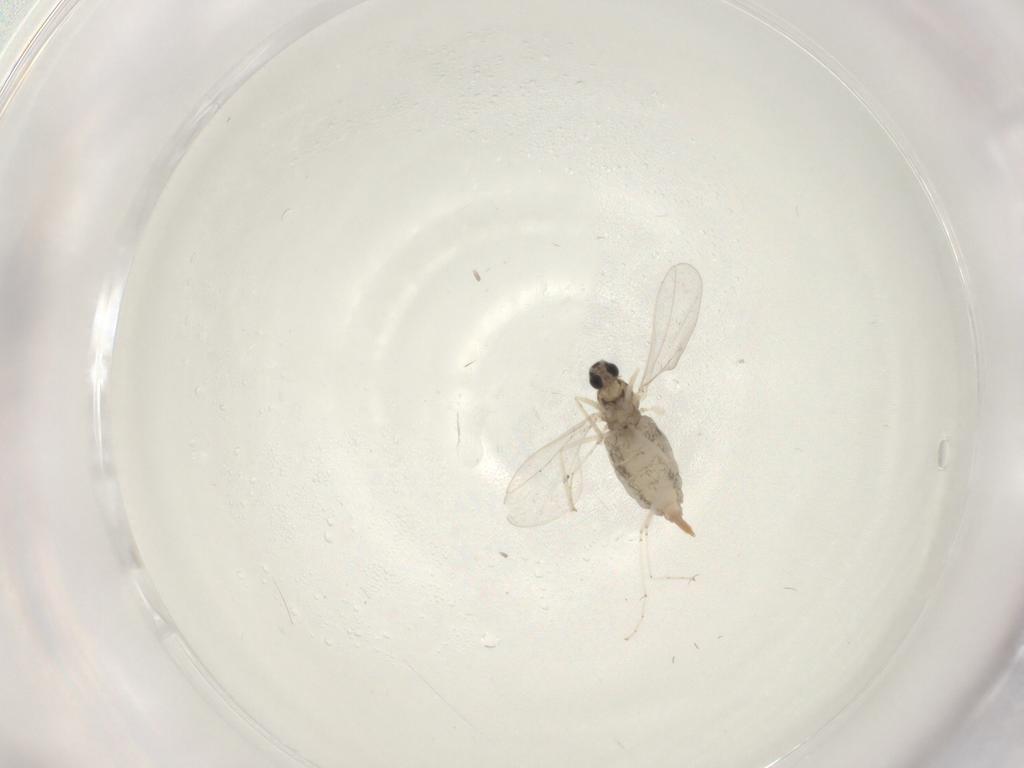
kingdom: Animalia
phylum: Arthropoda
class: Insecta
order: Diptera
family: Cecidomyiidae
